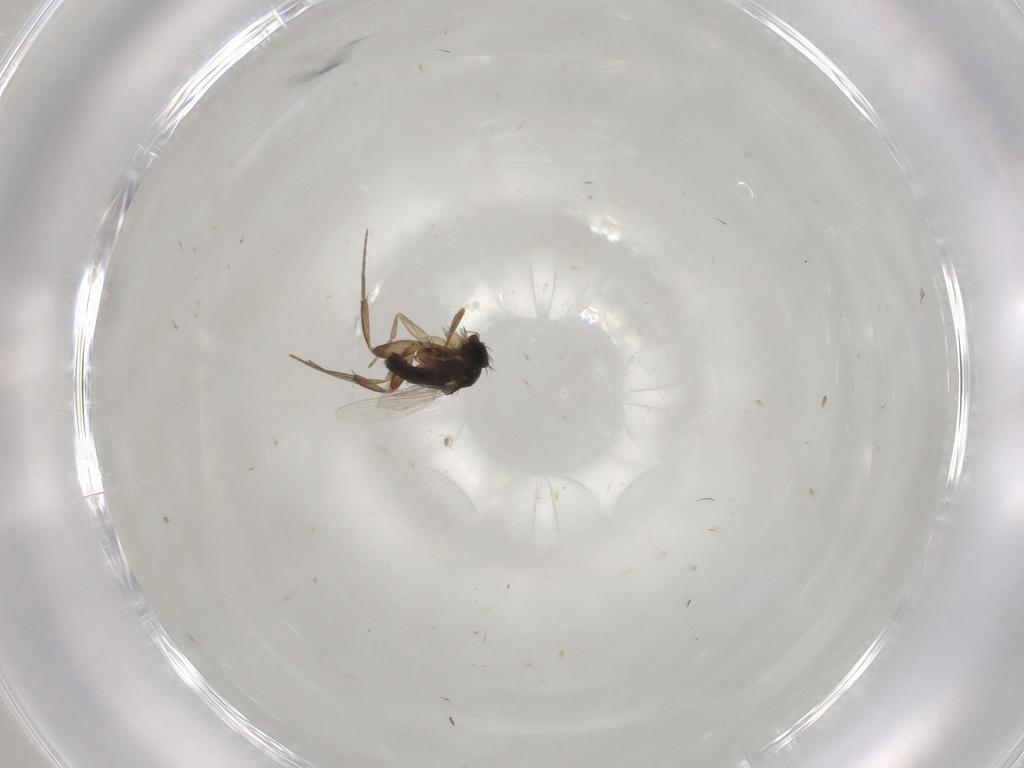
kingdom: Animalia
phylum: Arthropoda
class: Insecta
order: Diptera
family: Phoridae
